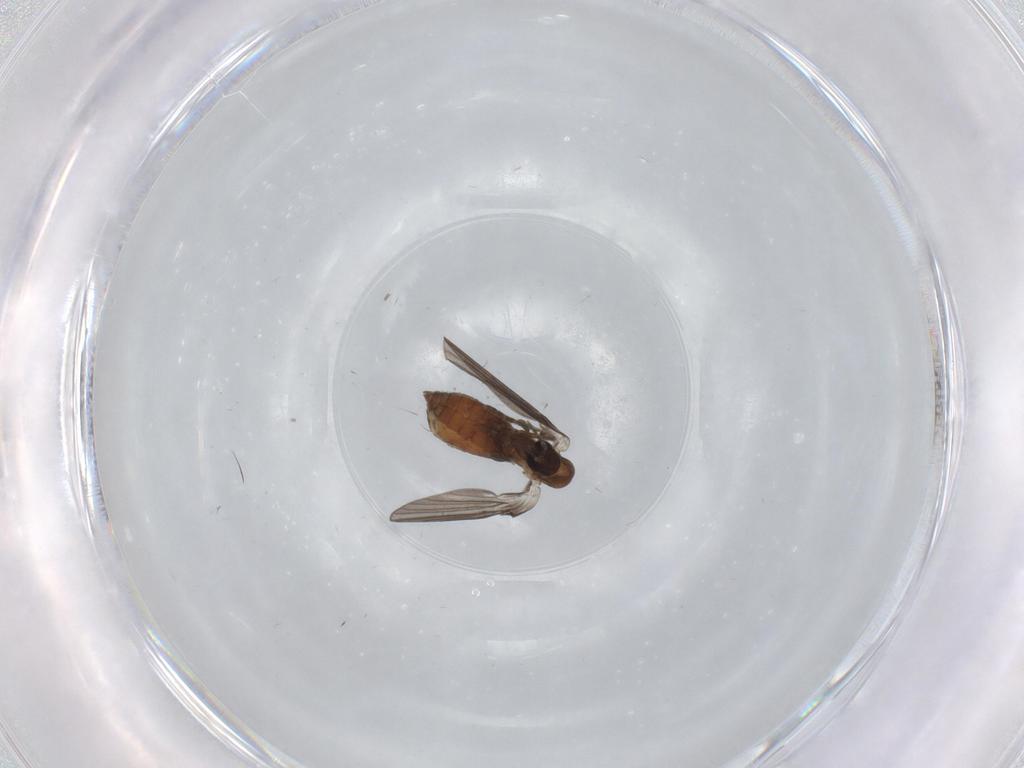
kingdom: Animalia
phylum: Arthropoda
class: Insecta
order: Diptera
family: Psychodidae
